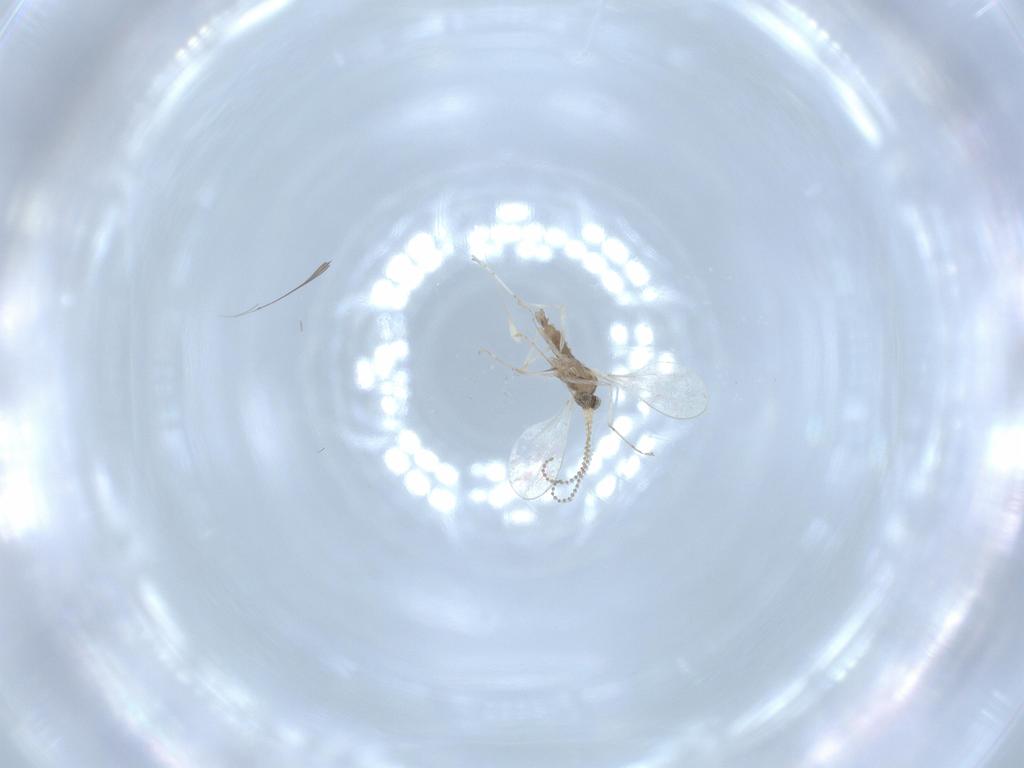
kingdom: Animalia
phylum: Arthropoda
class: Insecta
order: Diptera
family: Cecidomyiidae
